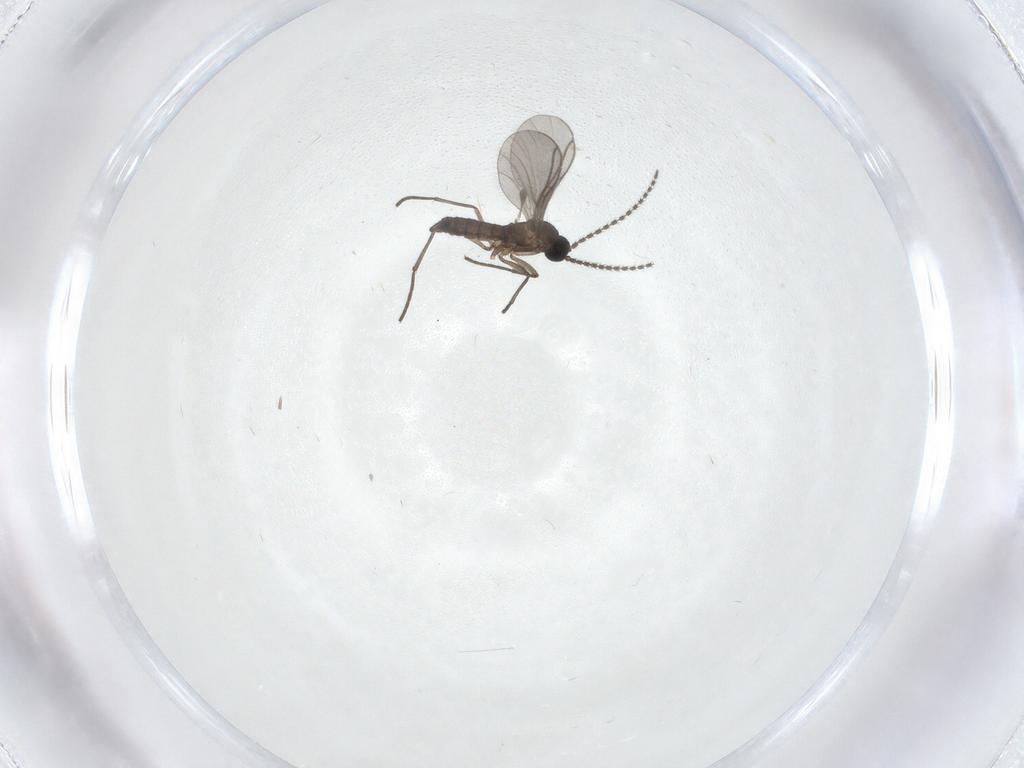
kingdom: Animalia
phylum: Arthropoda
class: Insecta
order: Diptera
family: Sciaridae
